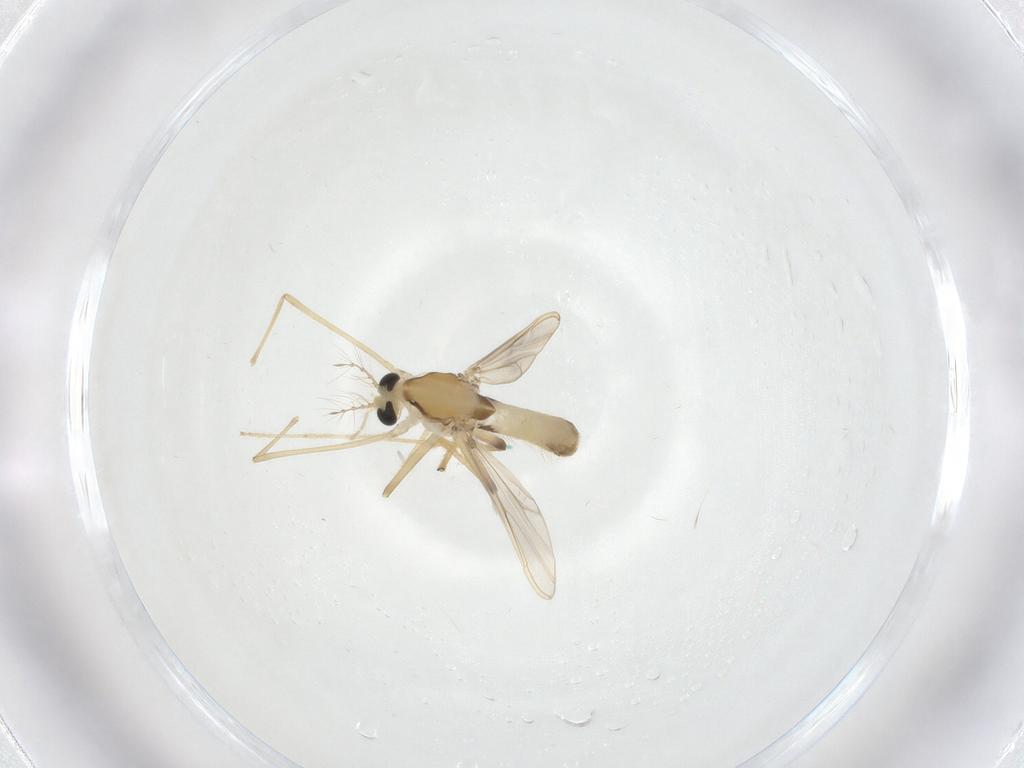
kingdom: Animalia
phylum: Arthropoda
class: Insecta
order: Diptera
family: Chironomidae
